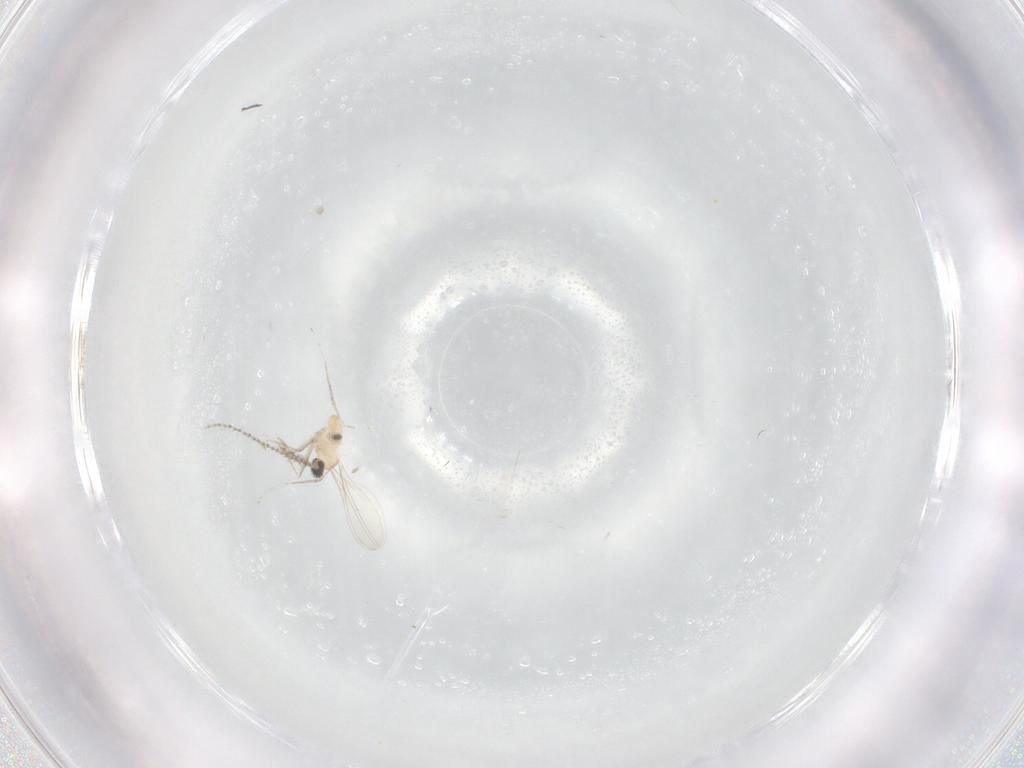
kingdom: Animalia
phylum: Arthropoda
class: Insecta
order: Diptera
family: Cecidomyiidae
